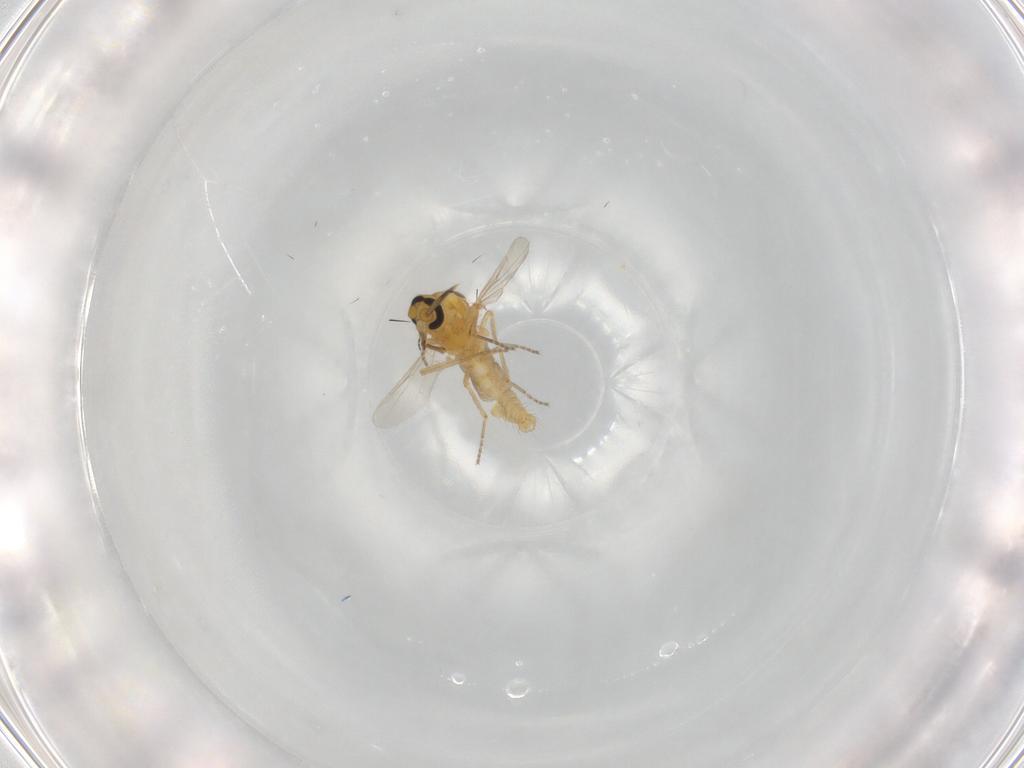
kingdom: Animalia
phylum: Arthropoda
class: Insecta
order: Diptera
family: Ceratopogonidae
